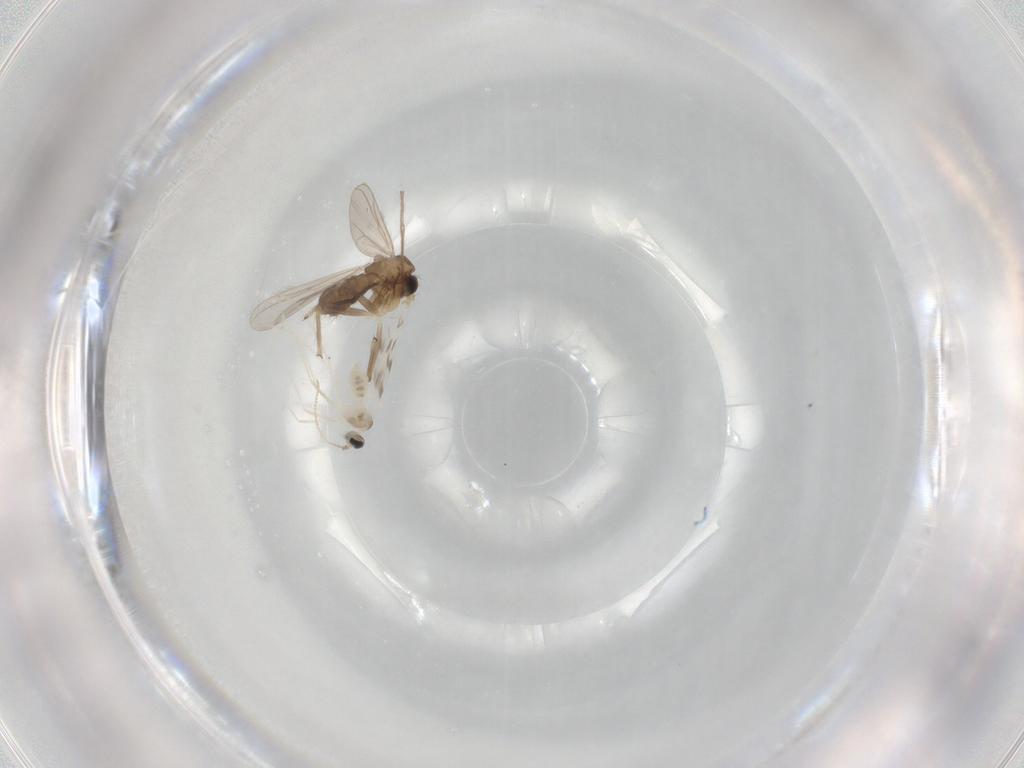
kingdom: Animalia
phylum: Arthropoda
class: Insecta
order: Diptera
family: Chironomidae
